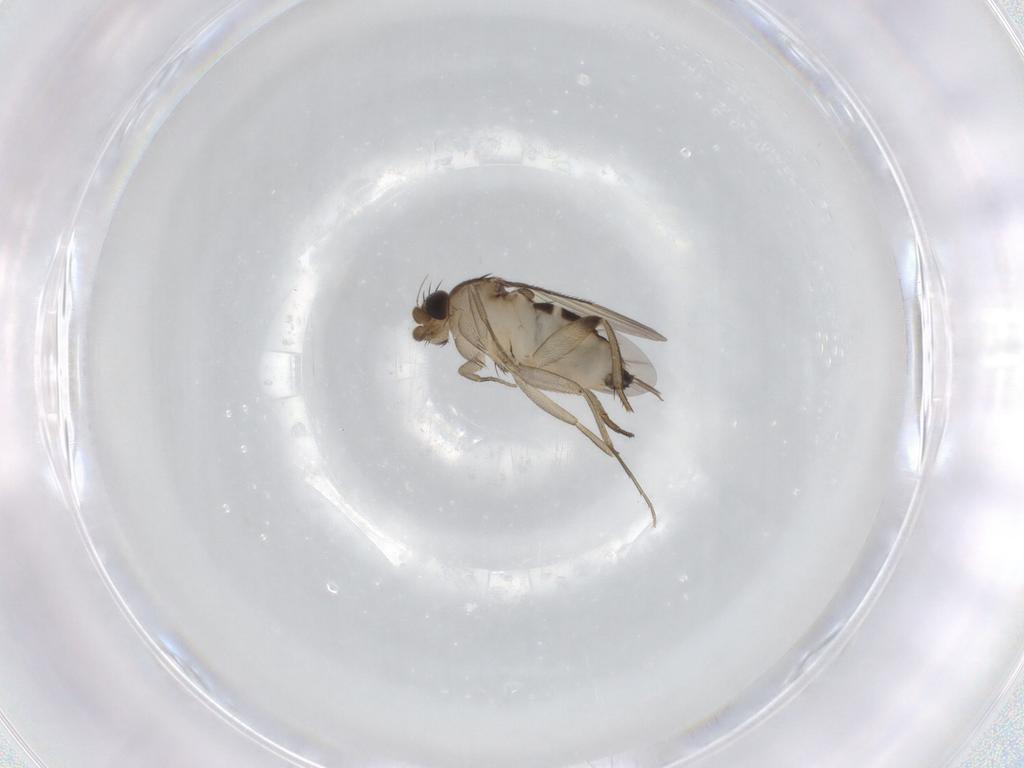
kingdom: Animalia
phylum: Arthropoda
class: Insecta
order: Diptera
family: Phoridae
